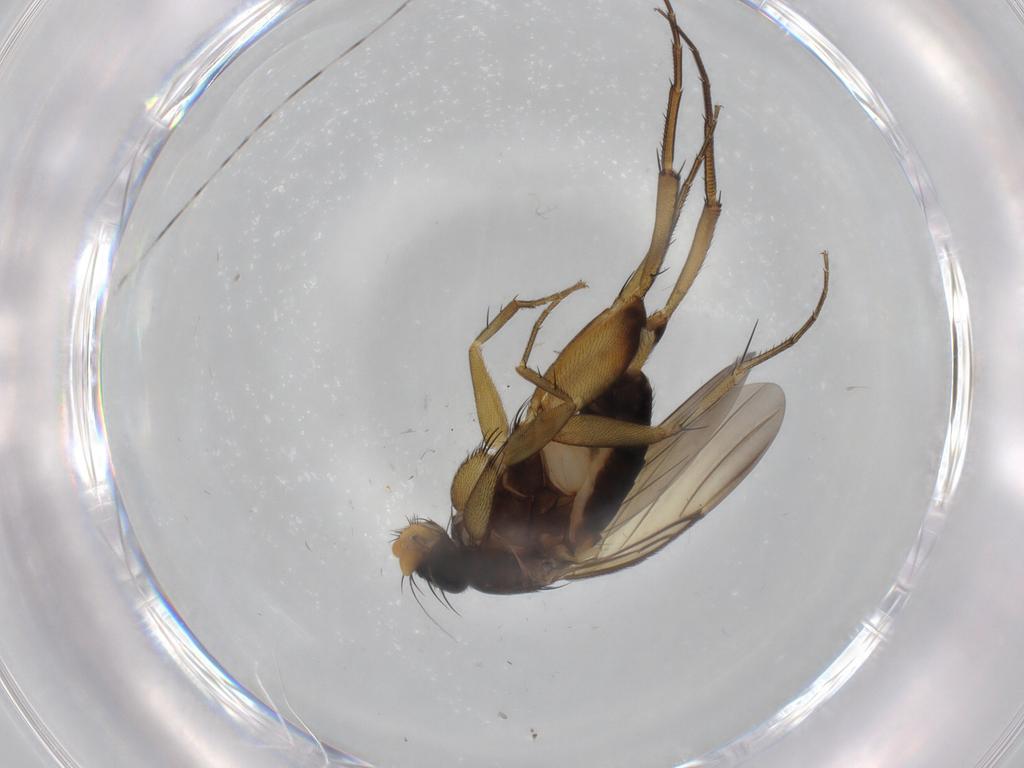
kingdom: Animalia
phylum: Arthropoda
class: Insecta
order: Diptera
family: Phoridae
